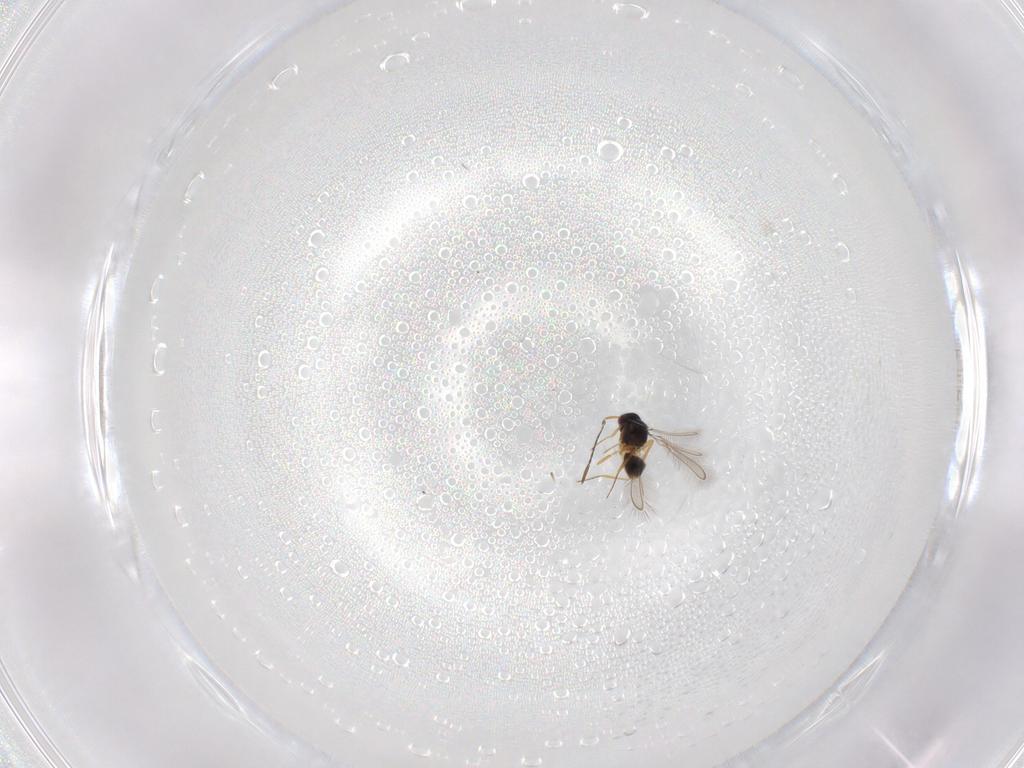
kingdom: Animalia
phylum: Arthropoda
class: Insecta
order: Hymenoptera
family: Mymaridae
